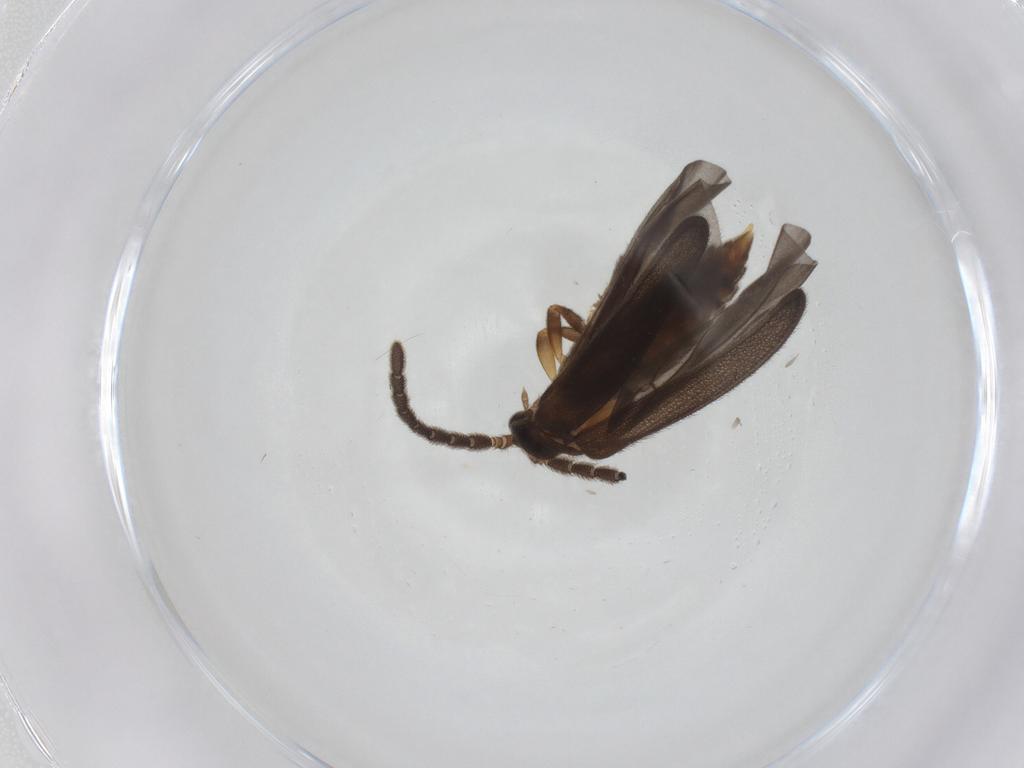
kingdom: Animalia
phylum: Arthropoda
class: Insecta
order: Coleoptera
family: Lycidae
